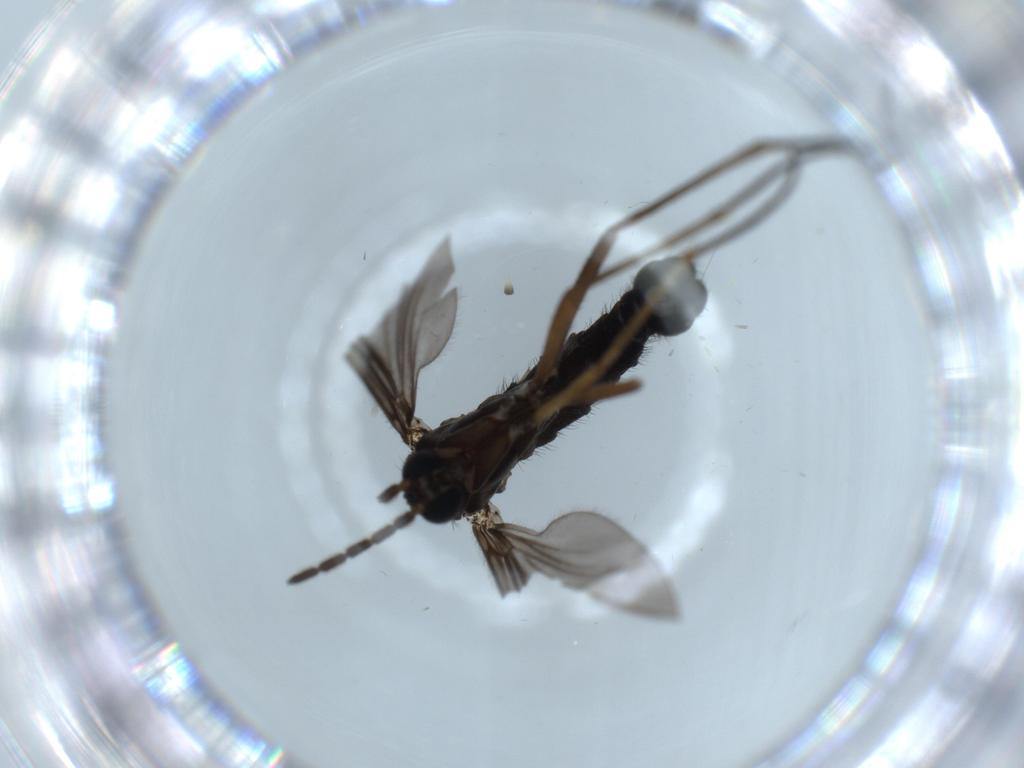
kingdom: Animalia
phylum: Arthropoda
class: Insecta
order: Diptera
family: Sciaridae
